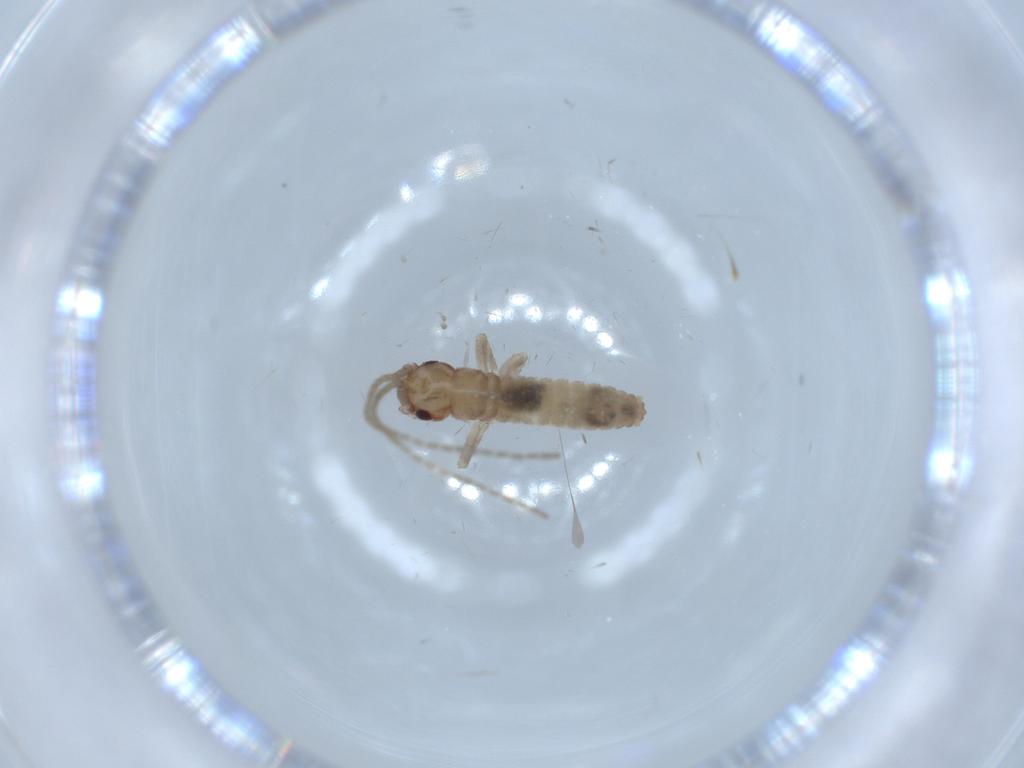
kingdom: Animalia
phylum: Arthropoda
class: Insecta
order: Orthoptera
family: Mogoplistidae
